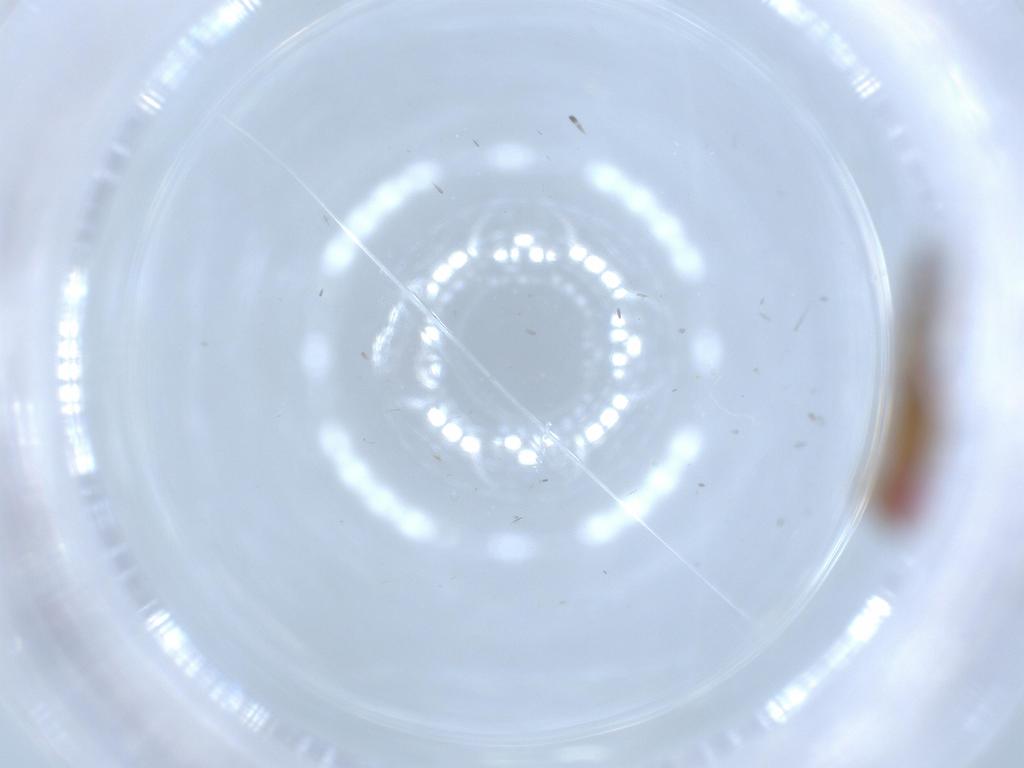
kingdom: Animalia
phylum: Arthropoda
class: Insecta
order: Diptera
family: Drosophilidae
